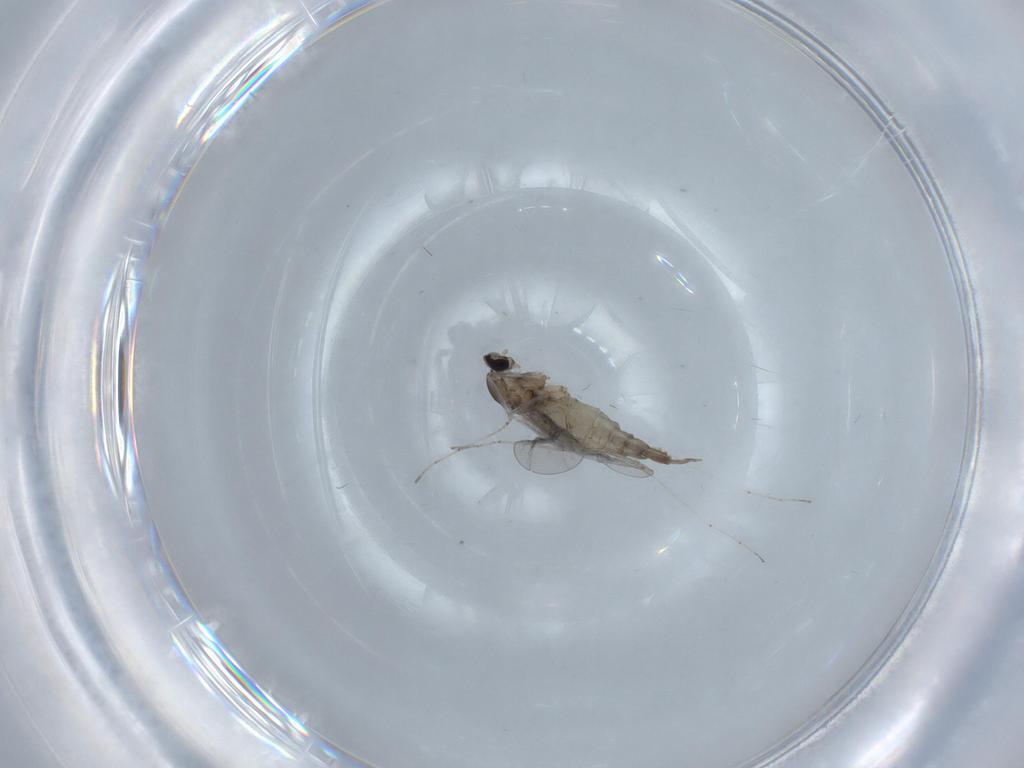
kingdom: Animalia
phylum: Arthropoda
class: Insecta
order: Diptera
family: Cecidomyiidae
